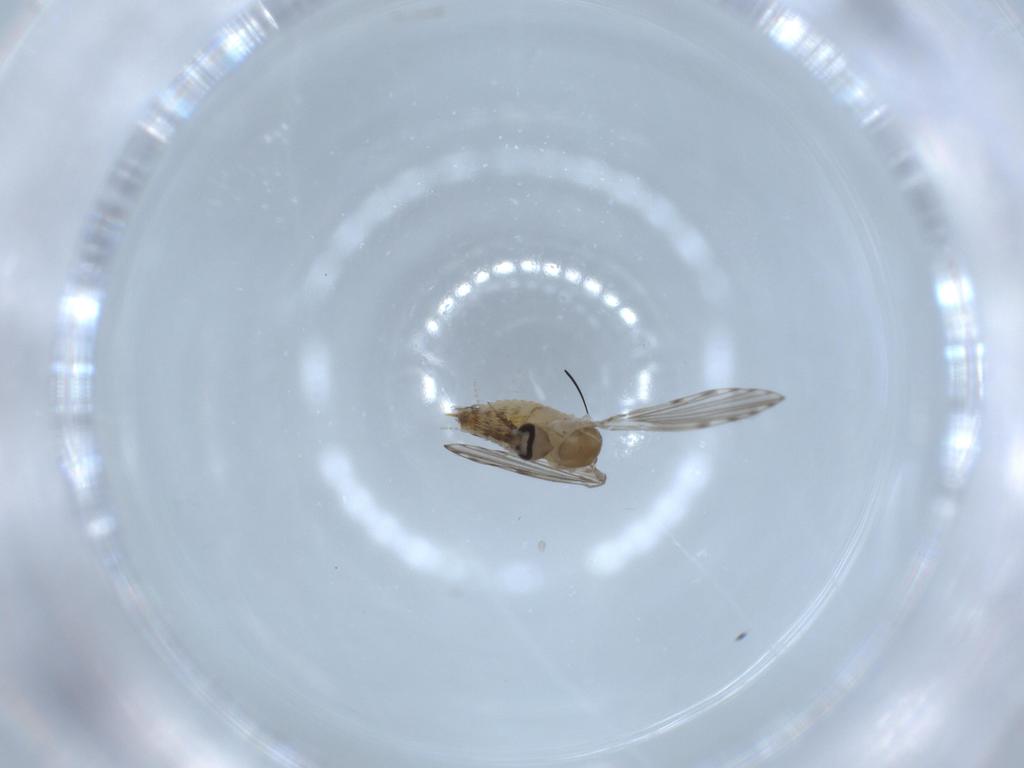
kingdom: Animalia
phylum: Arthropoda
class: Insecta
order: Diptera
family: Psychodidae
